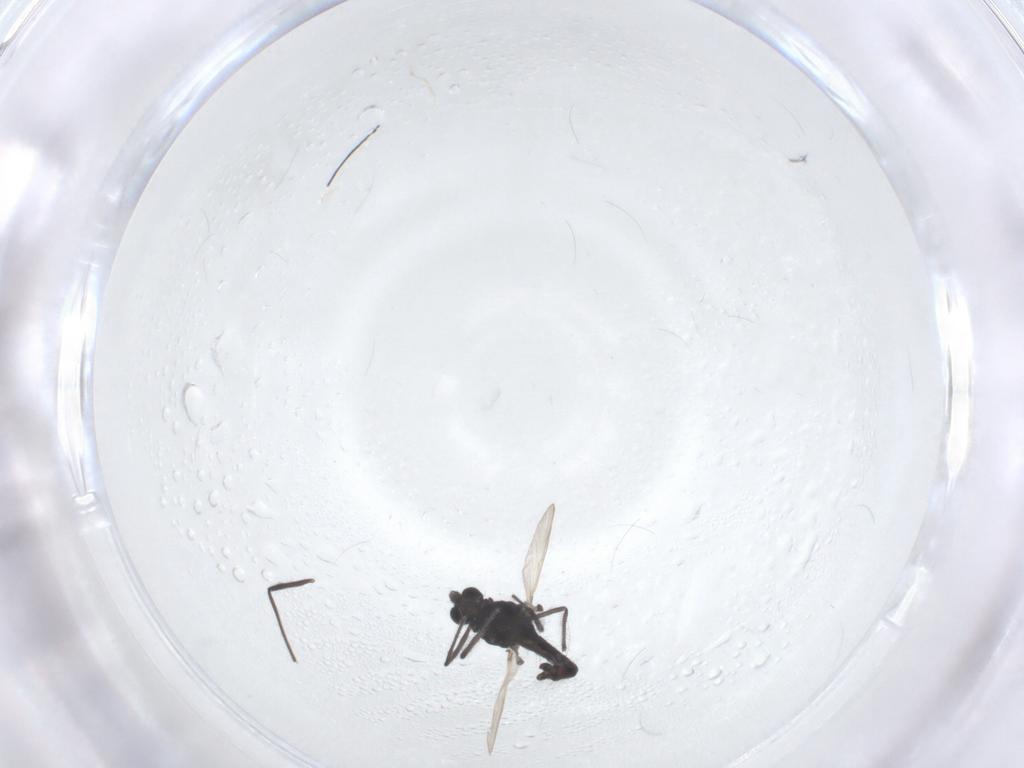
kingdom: Animalia
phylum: Arthropoda
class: Insecta
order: Diptera
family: Chironomidae
